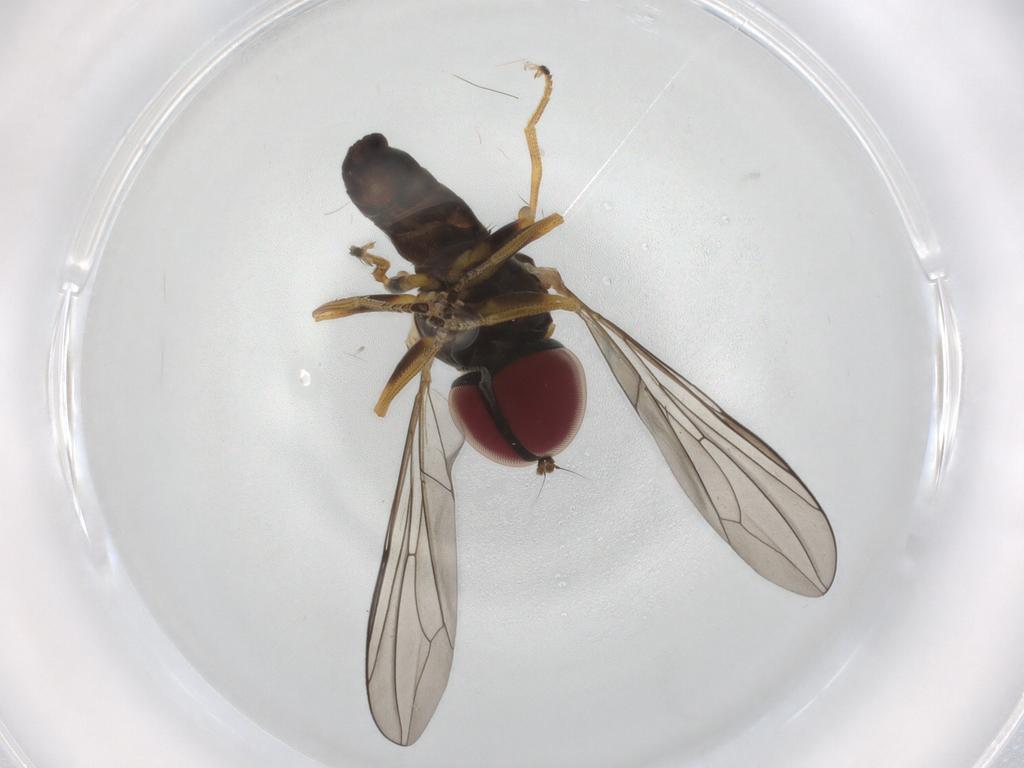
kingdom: Animalia
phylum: Arthropoda
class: Insecta
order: Diptera
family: Pipunculidae
